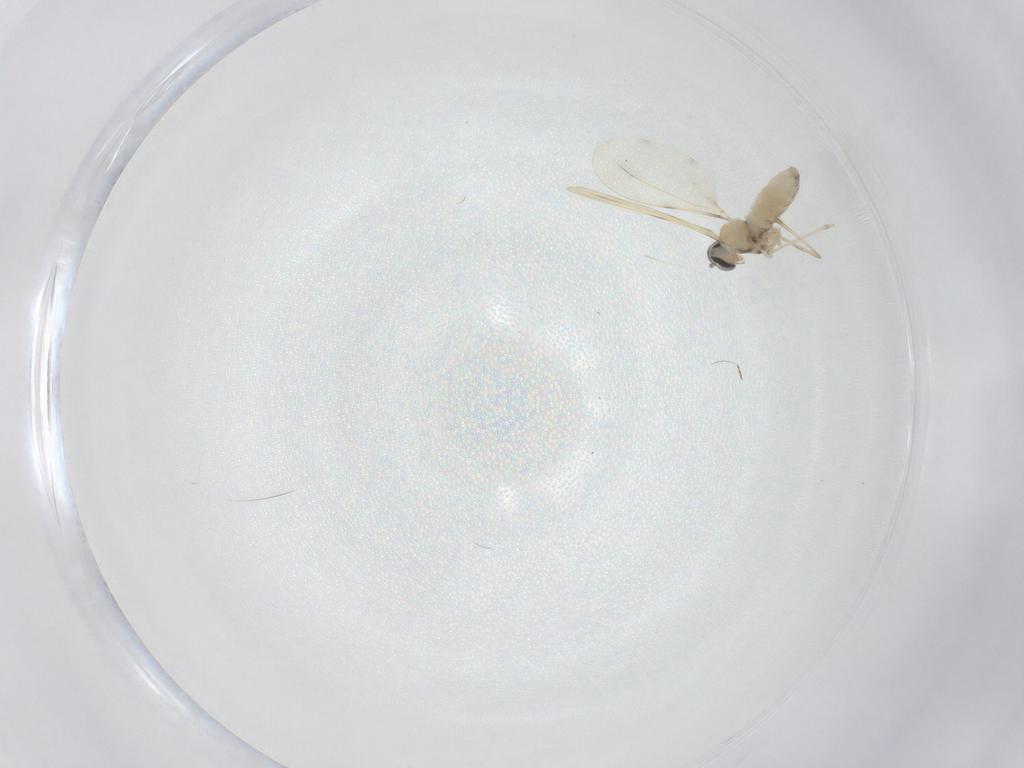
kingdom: Animalia
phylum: Arthropoda
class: Insecta
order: Diptera
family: Cecidomyiidae
